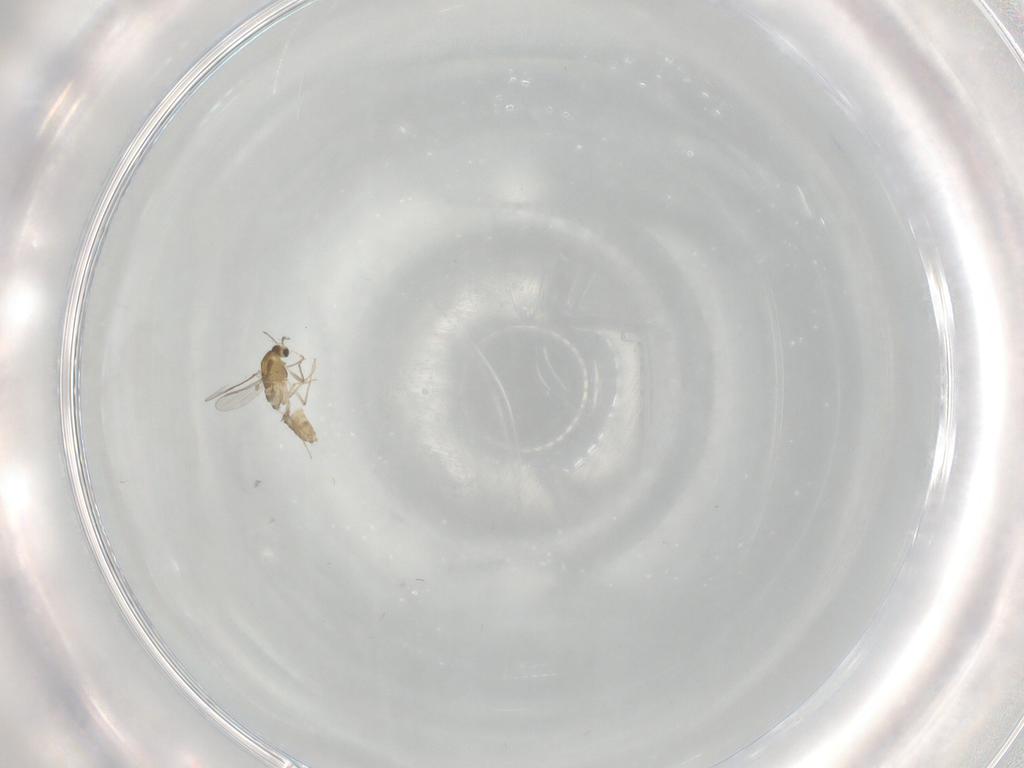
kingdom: Animalia
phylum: Arthropoda
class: Insecta
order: Diptera
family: Chironomidae
